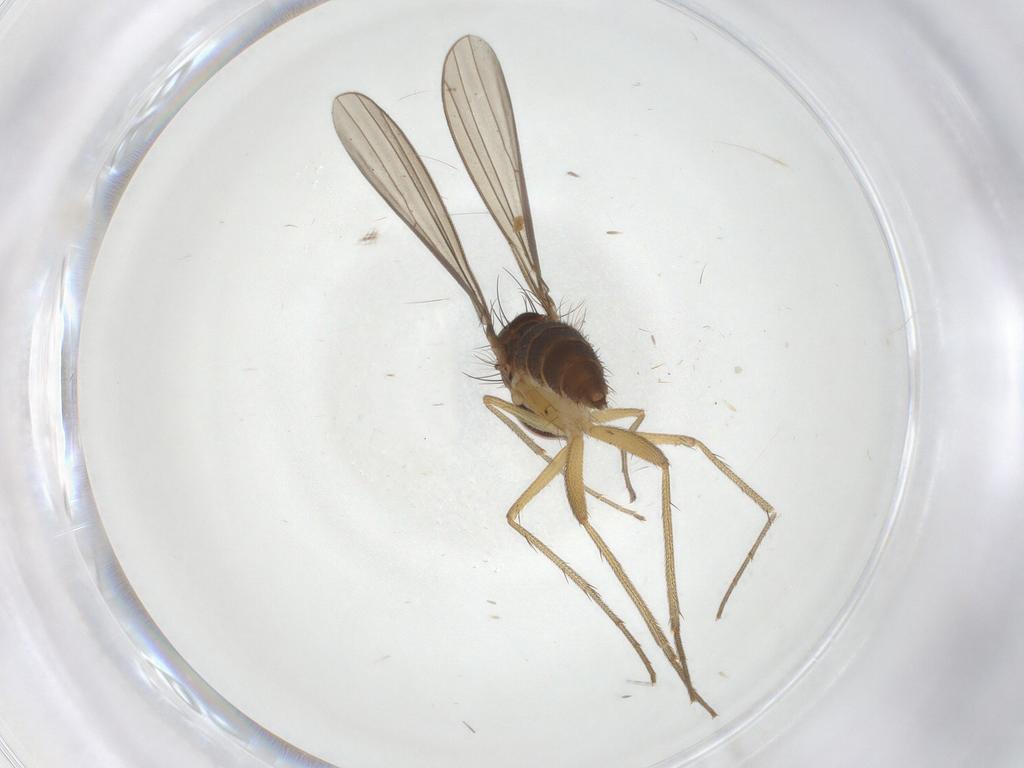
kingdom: Animalia
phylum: Arthropoda
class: Insecta
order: Diptera
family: Dolichopodidae
